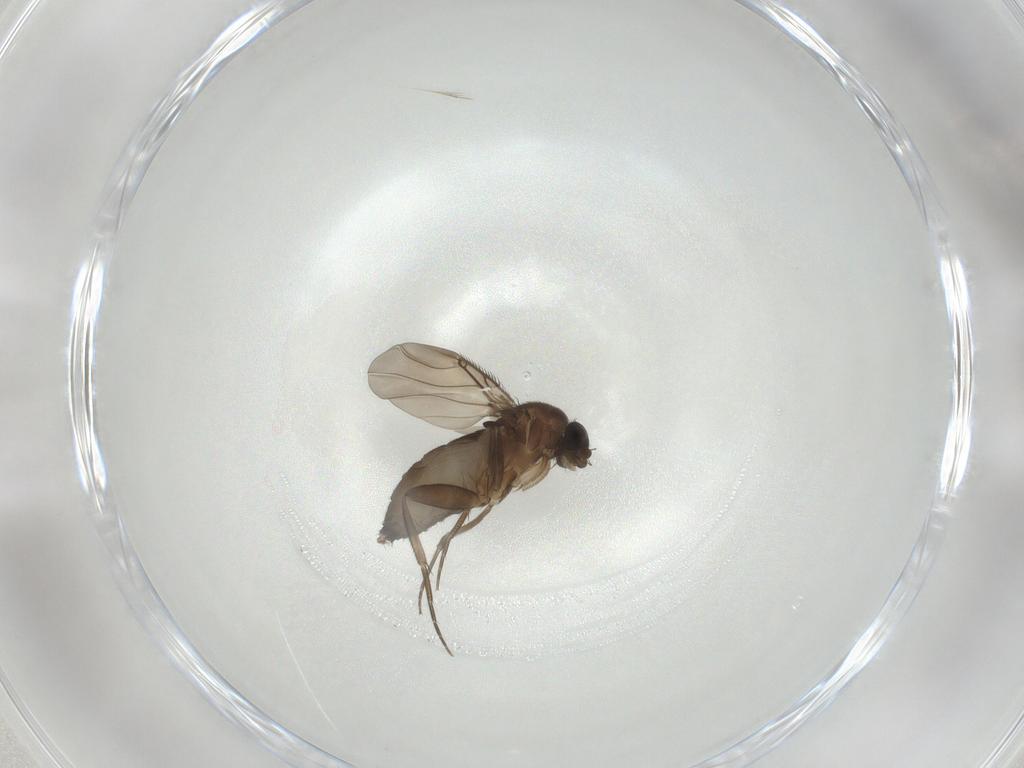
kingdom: Animalia
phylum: Arthropoda
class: Insecta
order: Diptera
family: Phoridae
